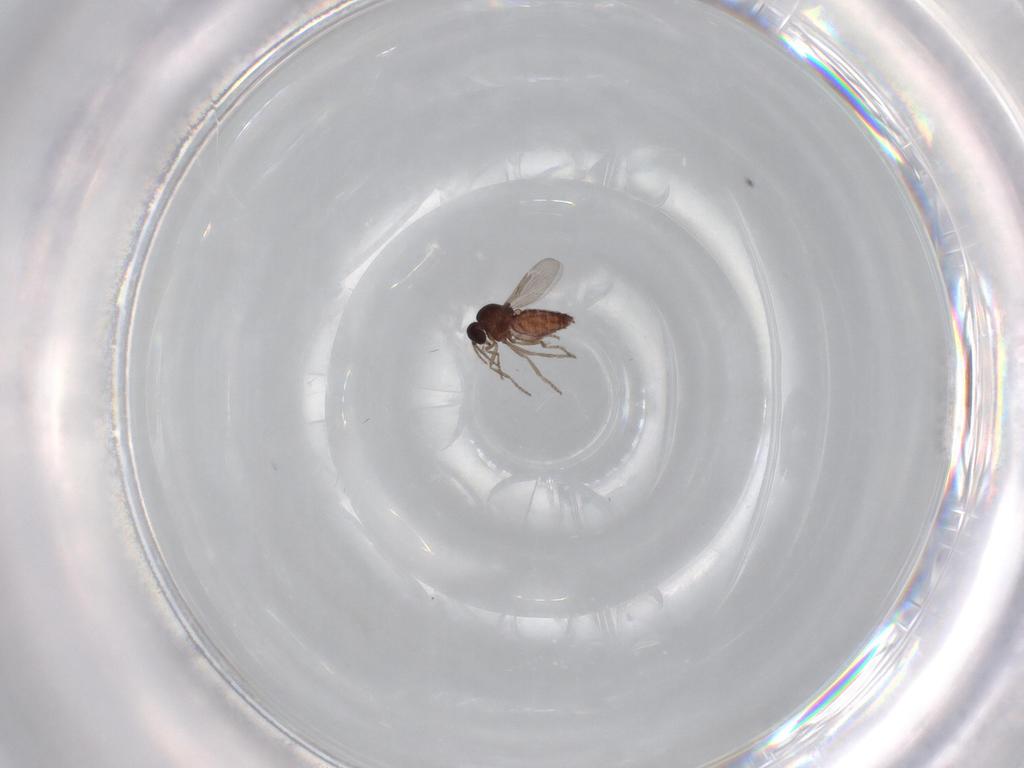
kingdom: Animalia
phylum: Arthropoda
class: Insecta
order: Diptera
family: Ceratopogonidae
